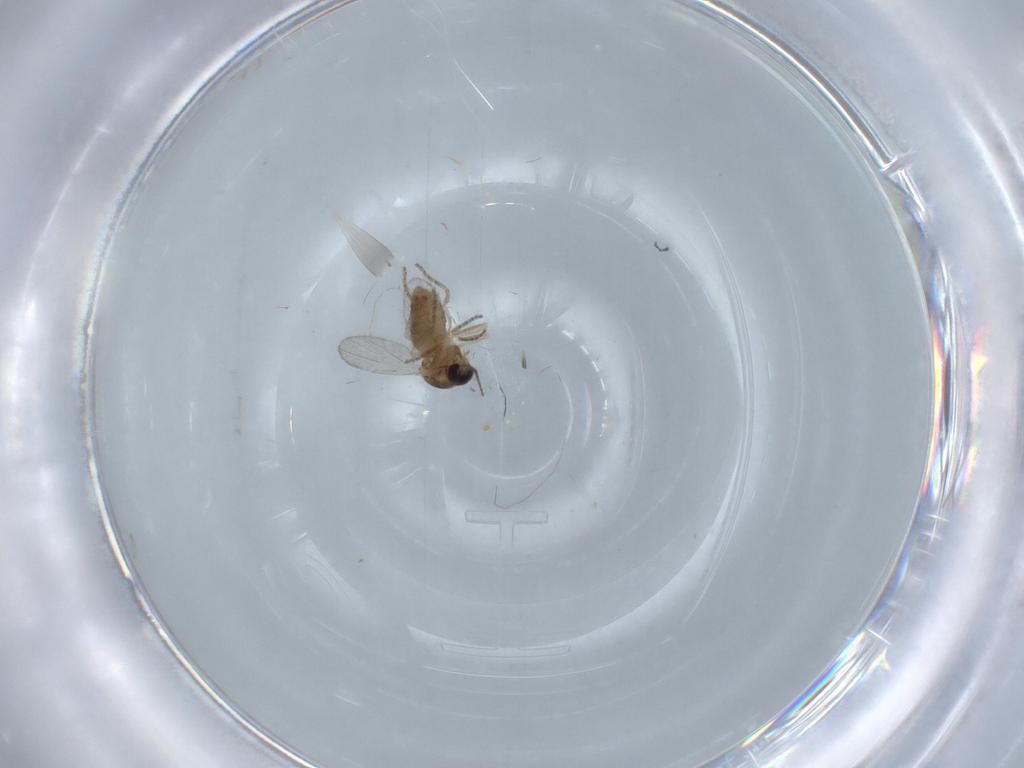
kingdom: Animalia
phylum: Arthropoda
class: Insecta
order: Diptera
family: Ceratopogonidae
